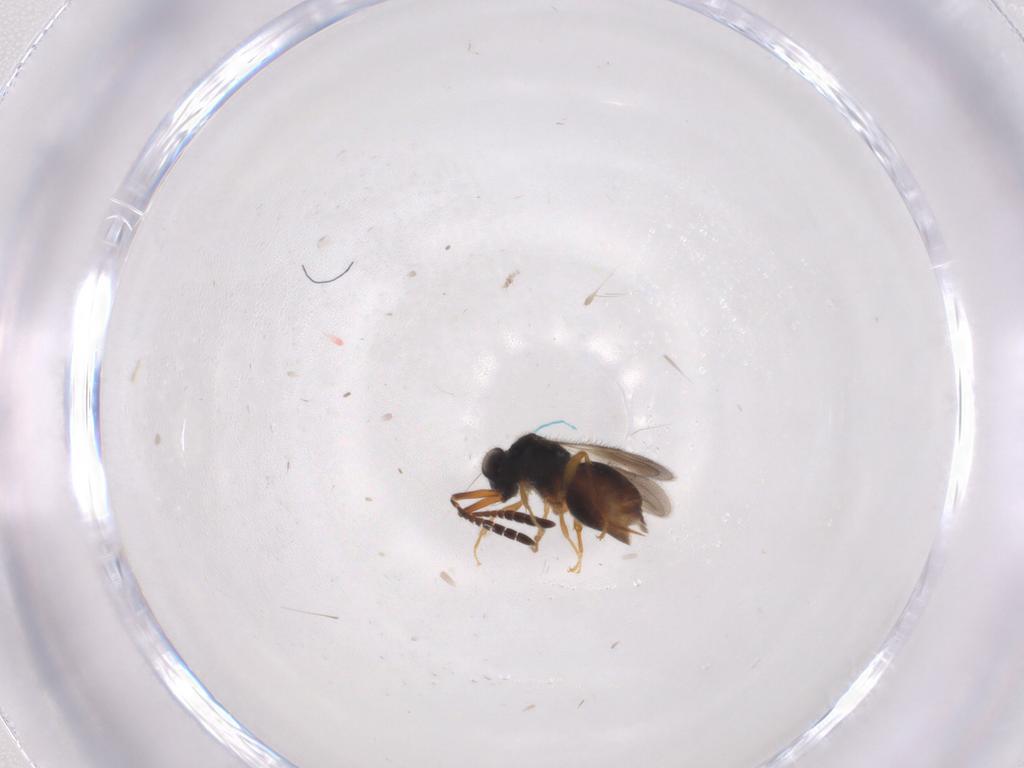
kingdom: Animalia
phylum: Arthropoda
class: Insecta
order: Hymenoptera
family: Ceraphronidae
